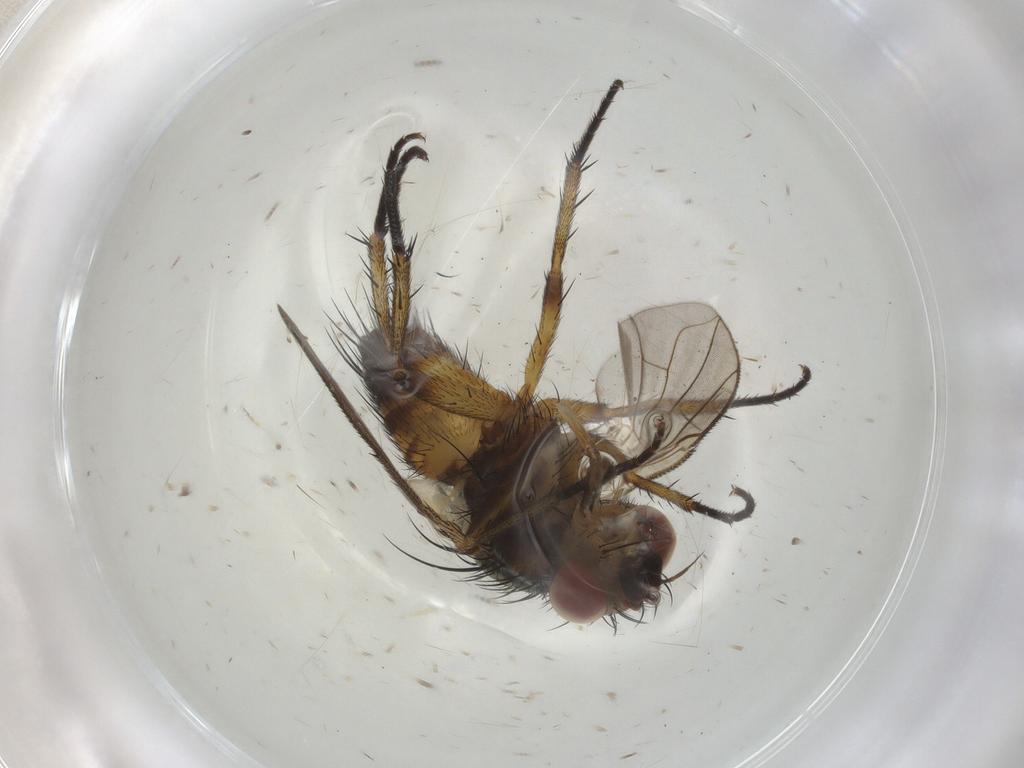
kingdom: Animalia
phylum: Arthropoda
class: Insecta
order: Diptera
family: Tachinidae
